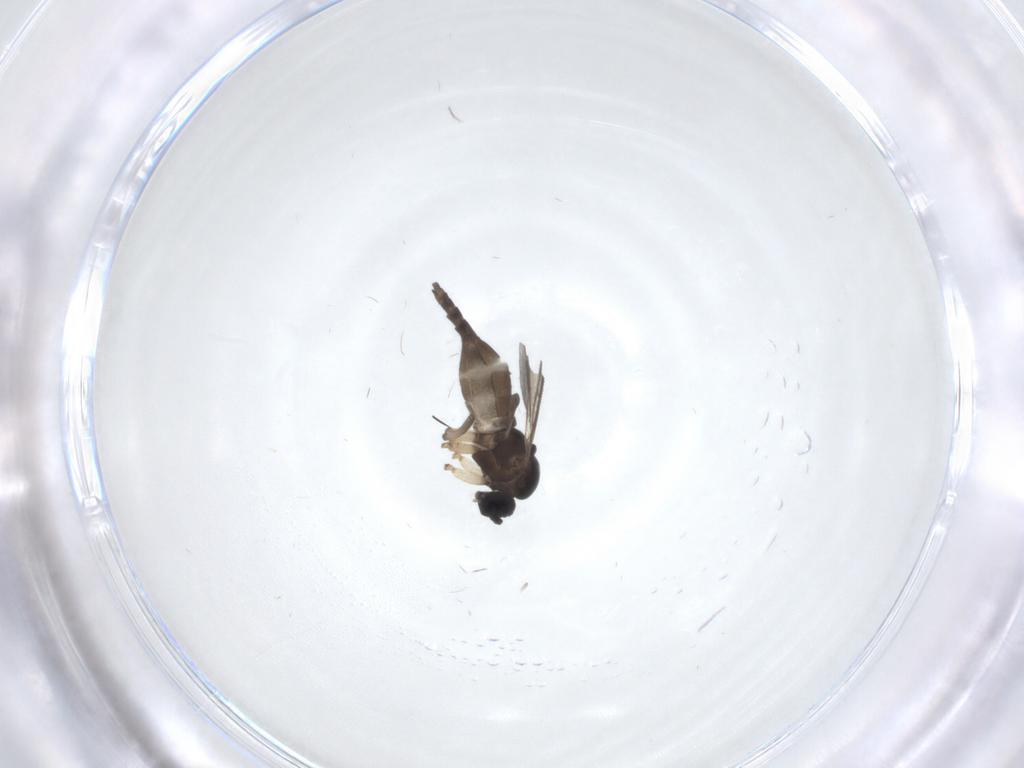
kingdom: Animalia
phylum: Arthropoda
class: Insecta
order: Diptera
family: Sciaridae
